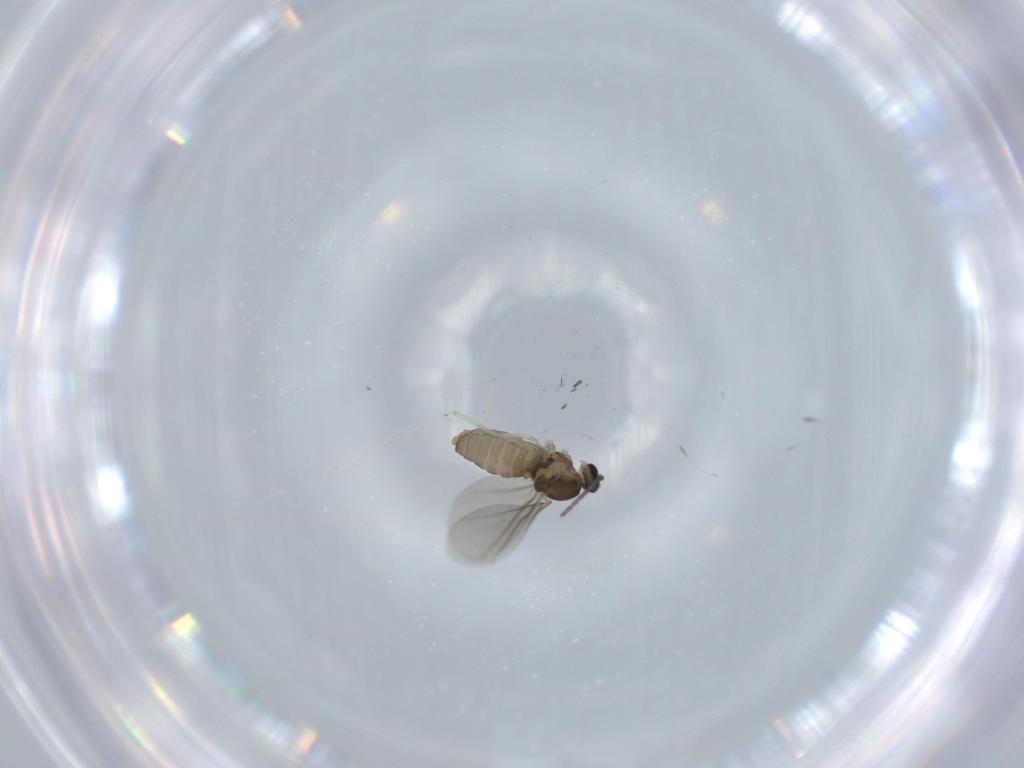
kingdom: Animalia
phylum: Arthropoda
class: Insecta
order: Diptera
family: Cecidomyiidae
